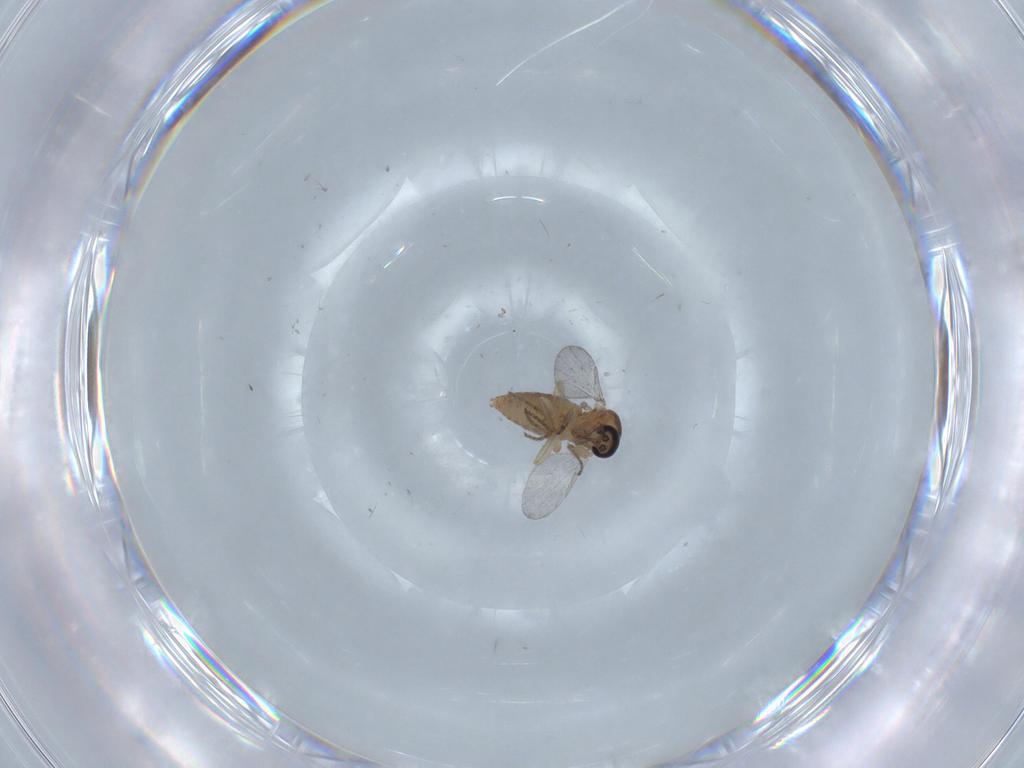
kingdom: Animalia
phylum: Arthropoda
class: Insecta
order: Diptera
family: Ceratopogonidae
